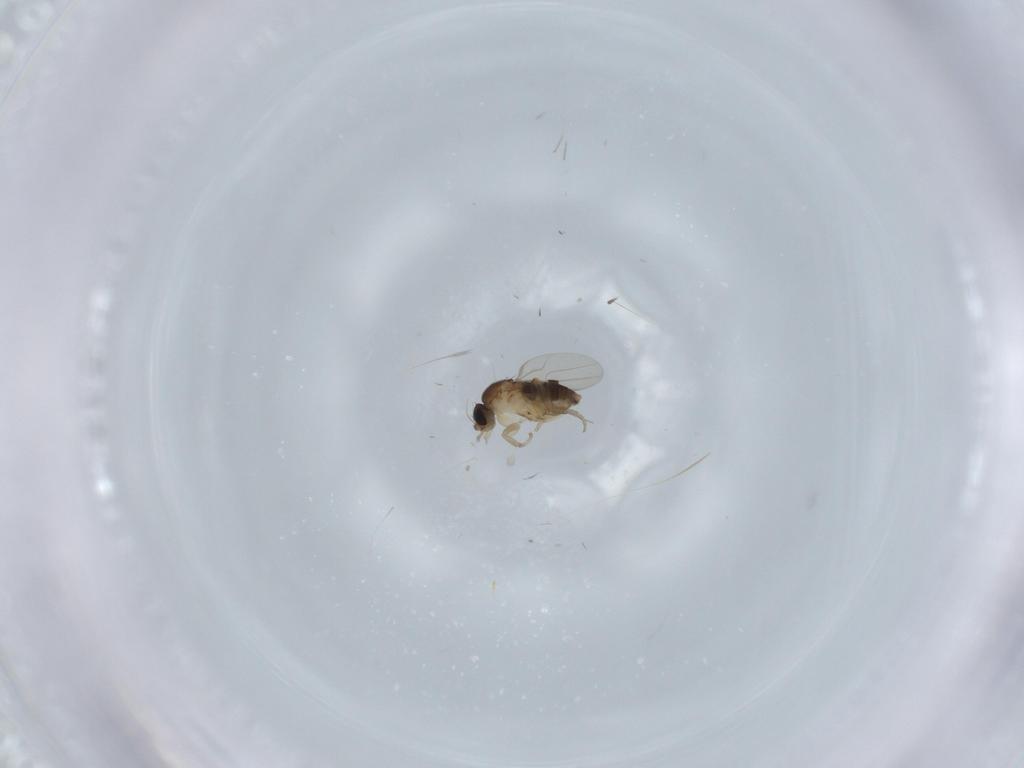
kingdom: Animalia
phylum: Arthropoda
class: Insecta
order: Diptera
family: Phoridae
